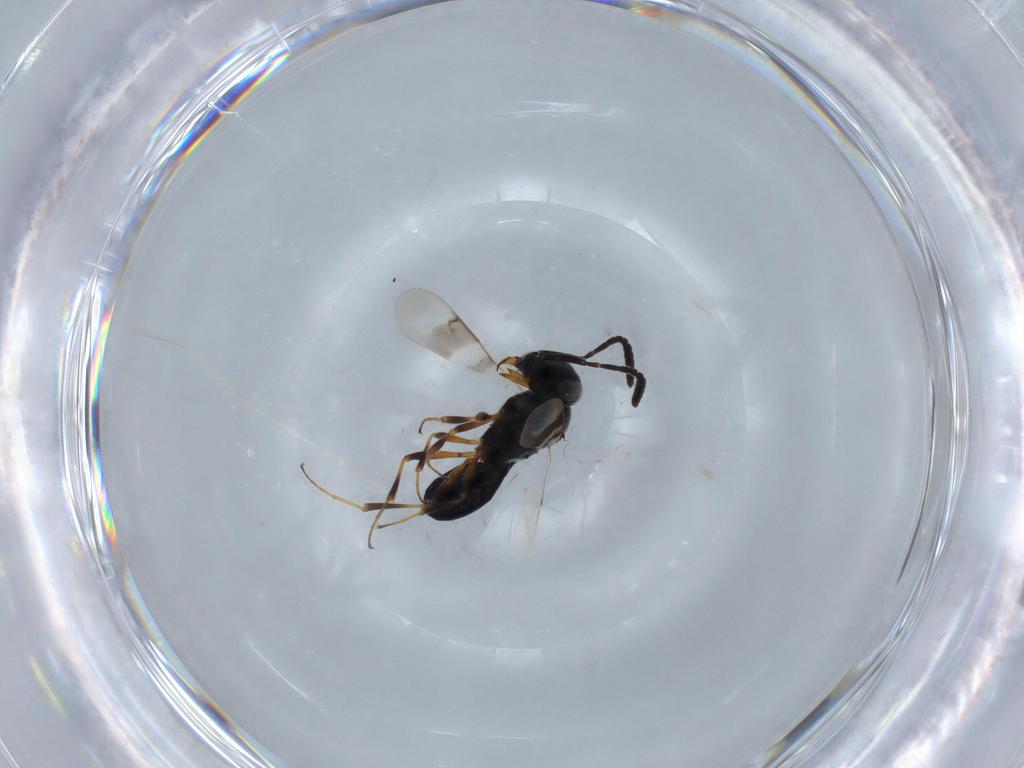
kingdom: Animalia
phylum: Arthropoda
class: Insecta
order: Hymenoptera
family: Scelionidae
